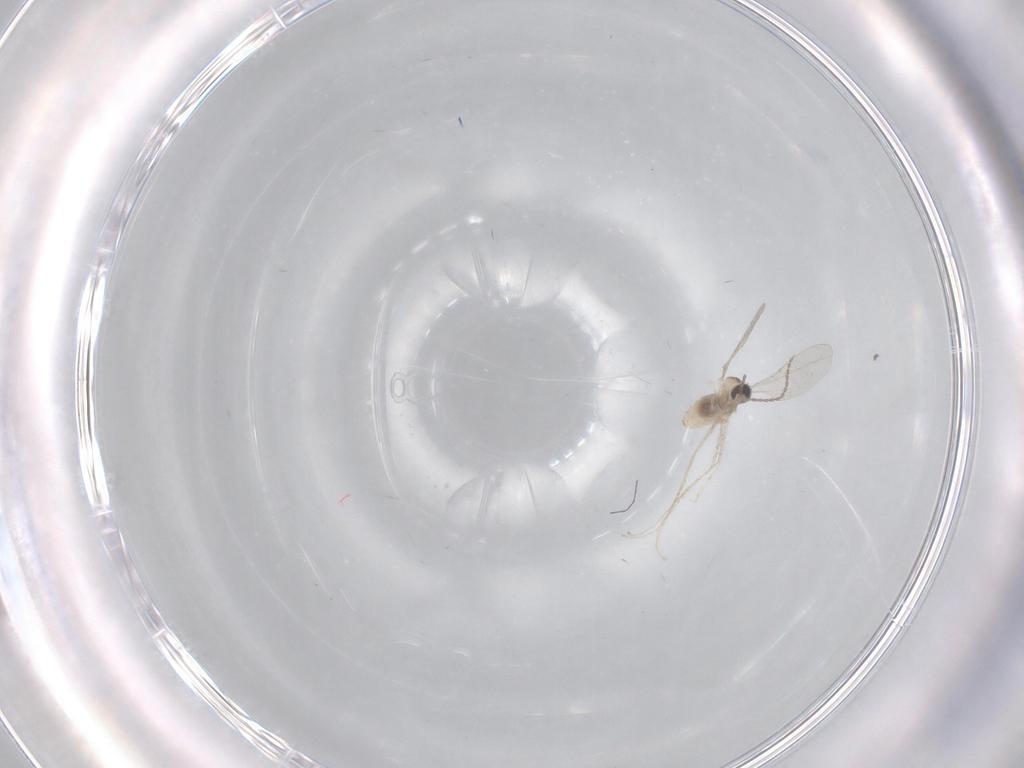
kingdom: Animalia
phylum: Arthropoda
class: Insecta
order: Diptera
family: Cecidomyiidae
